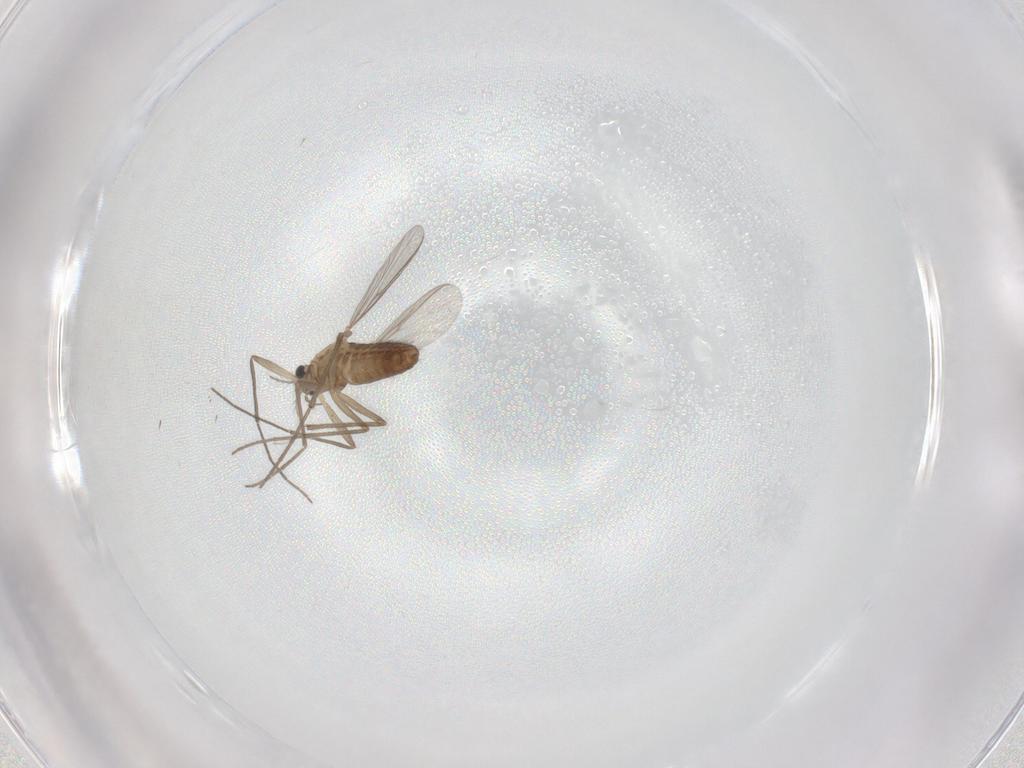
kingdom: Animalia
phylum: Arthropoda
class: Insecta
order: Diptera
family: Chironomidae
